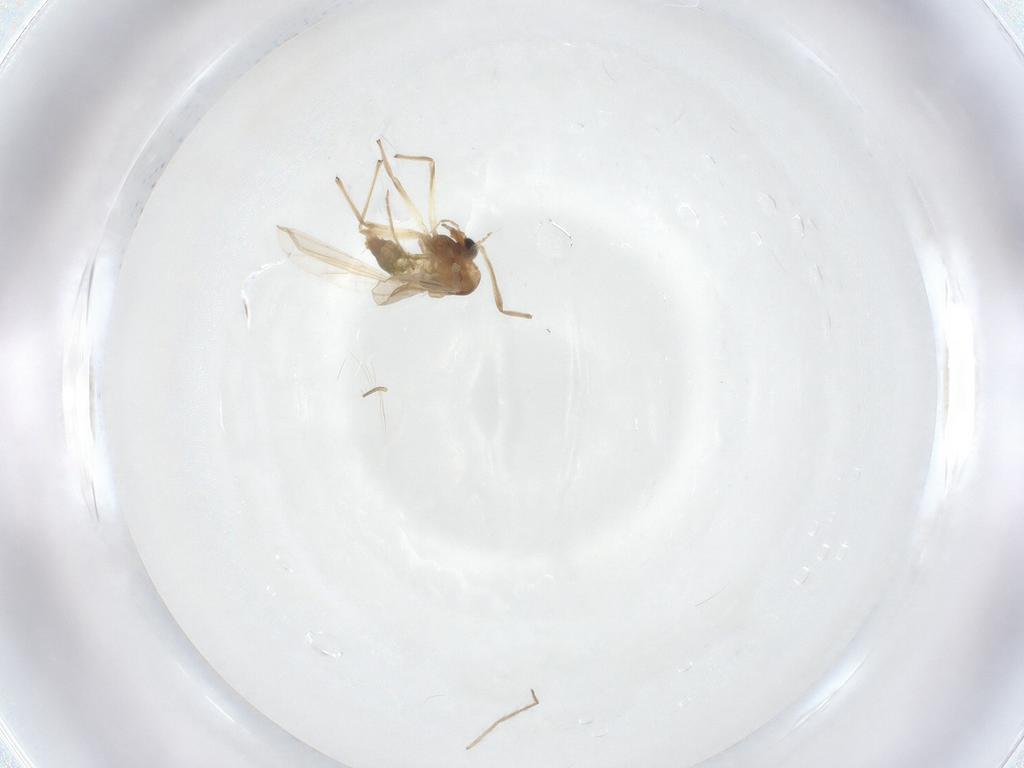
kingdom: Animalia
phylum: Arthropoda
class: Insecta
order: Diptera
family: Chironomidae
